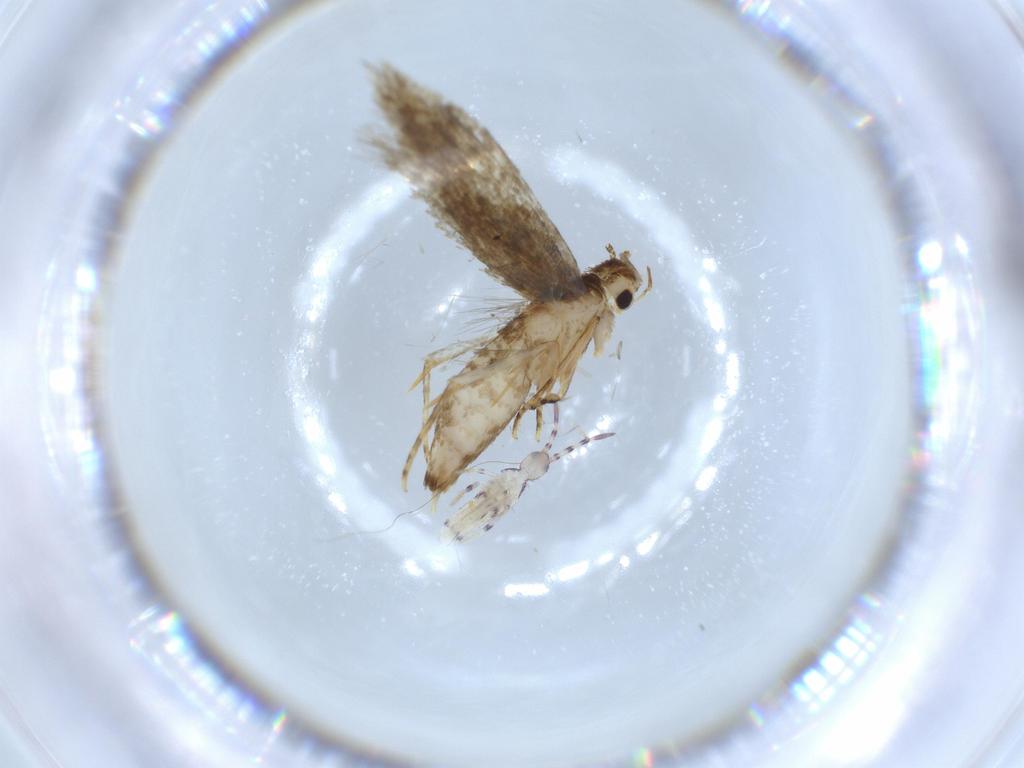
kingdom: Animalia
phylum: Arthropoda
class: Insecta
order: Lepidoptera
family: Tineidae
